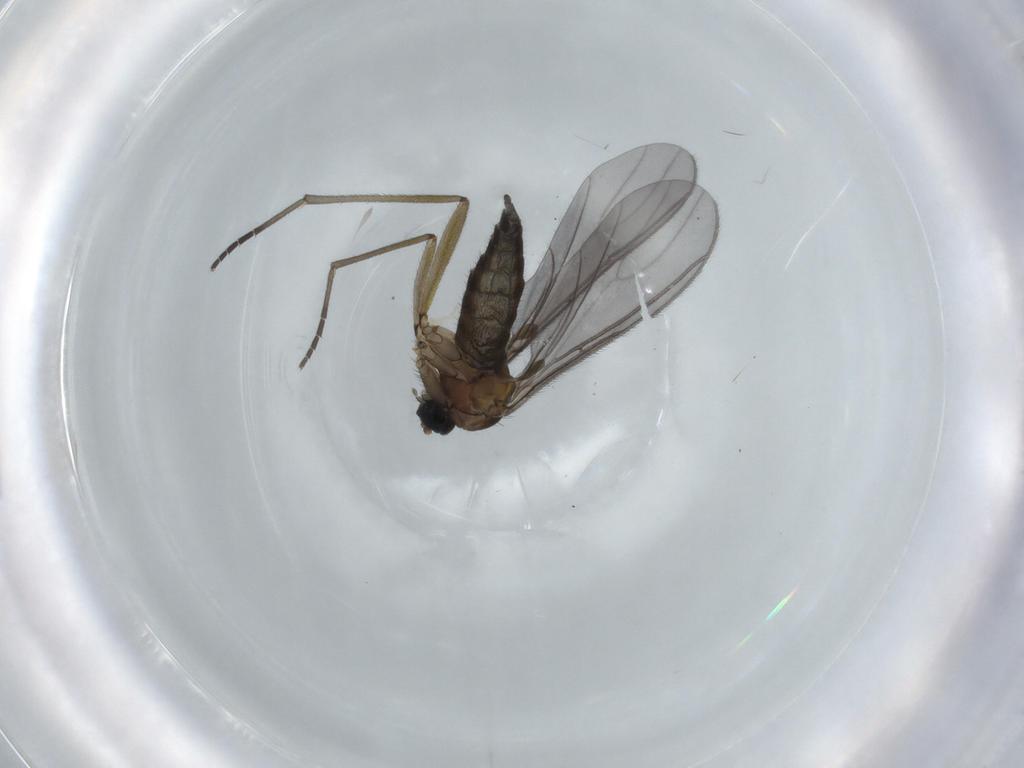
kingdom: Animalia
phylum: Arthropoda
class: Insecta
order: Diptera
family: Sciaridae
